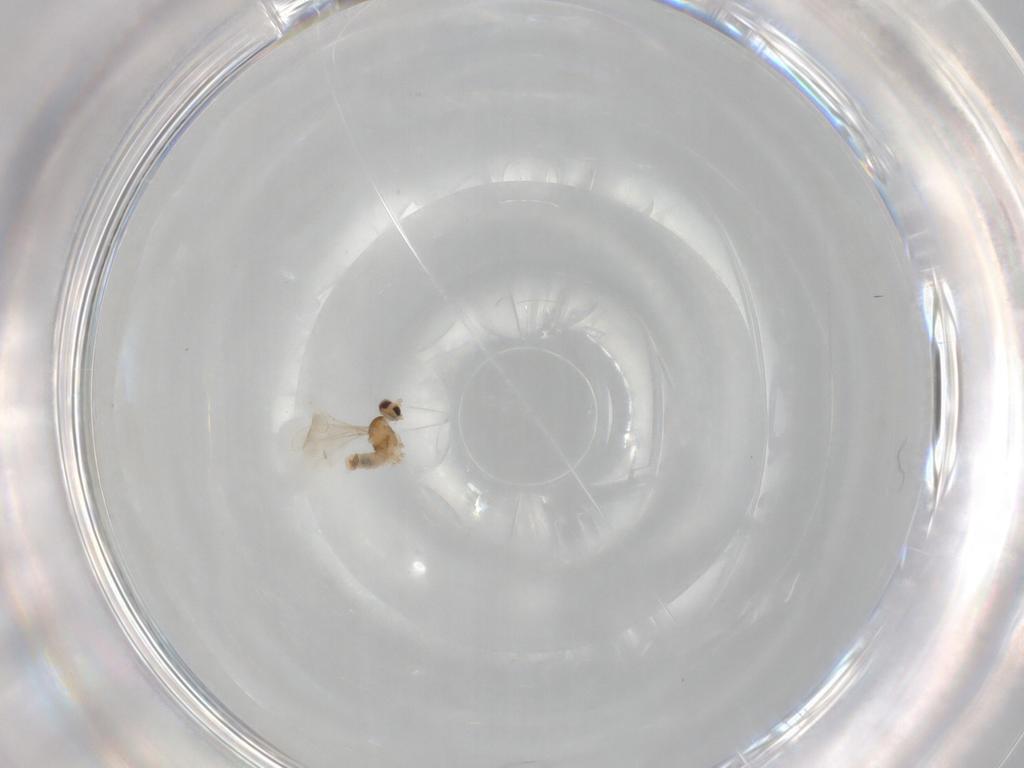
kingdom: Animalia
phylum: Arthropoda
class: Insecta
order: Diptera
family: Cecidomyiidae
